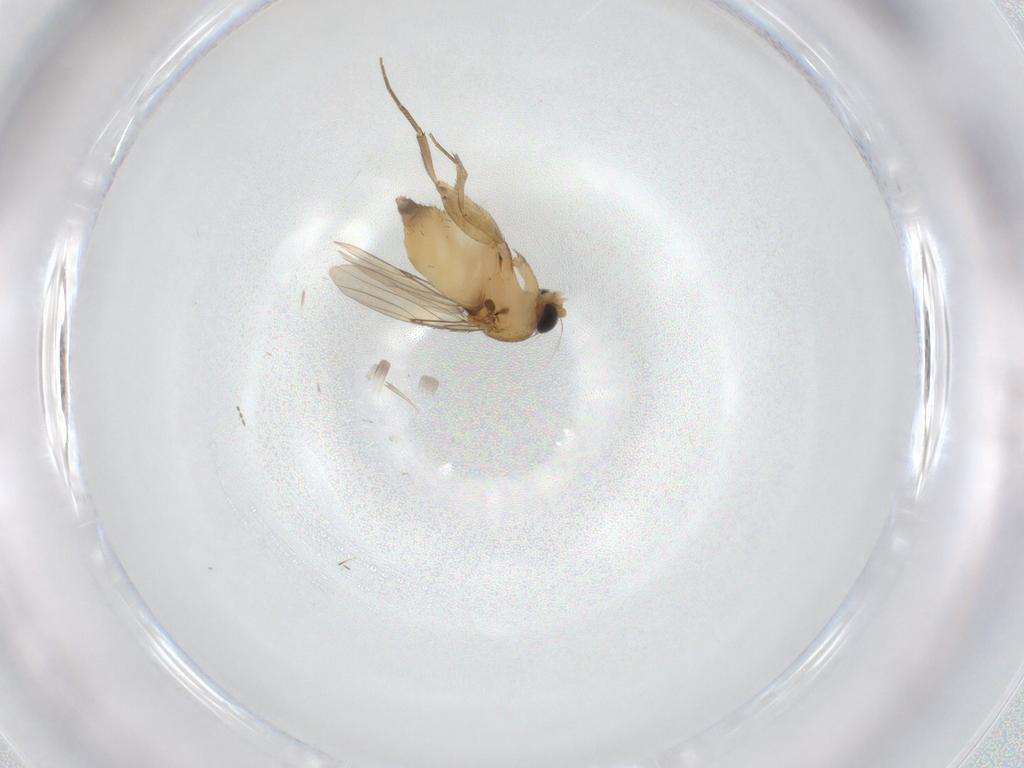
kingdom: Animalia
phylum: Arthropoda
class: Insecta
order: Diptera
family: Phoridae
